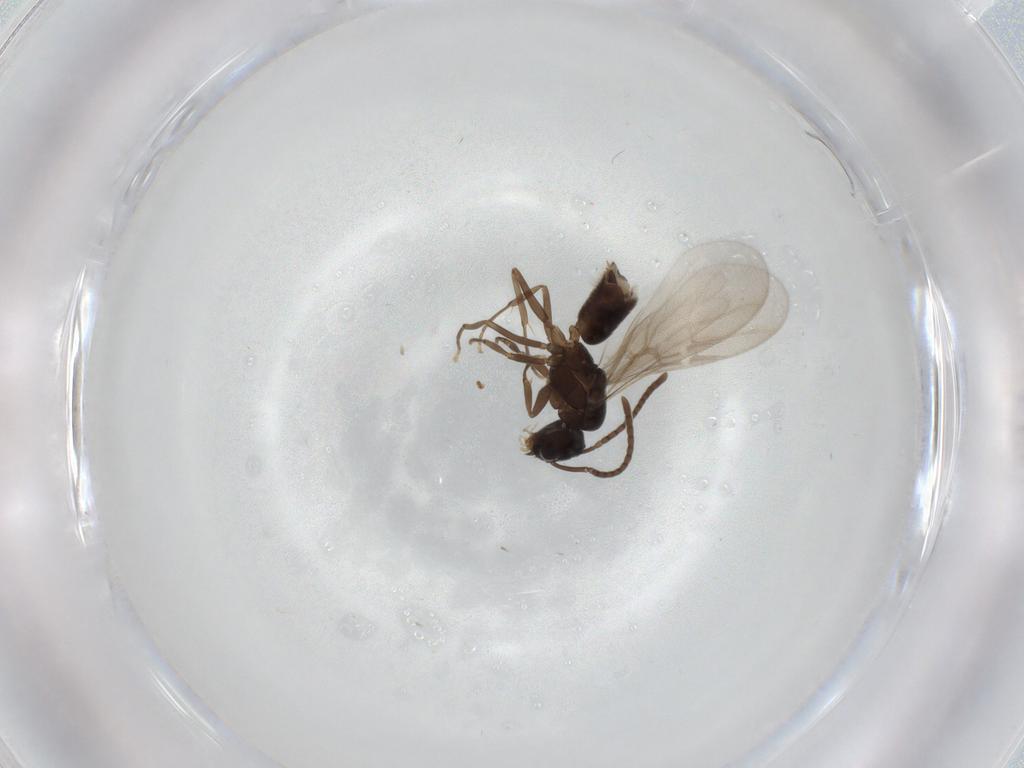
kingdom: Animalia
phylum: Arthropoda
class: Insecta
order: Hymenoptera
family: Formicidae
